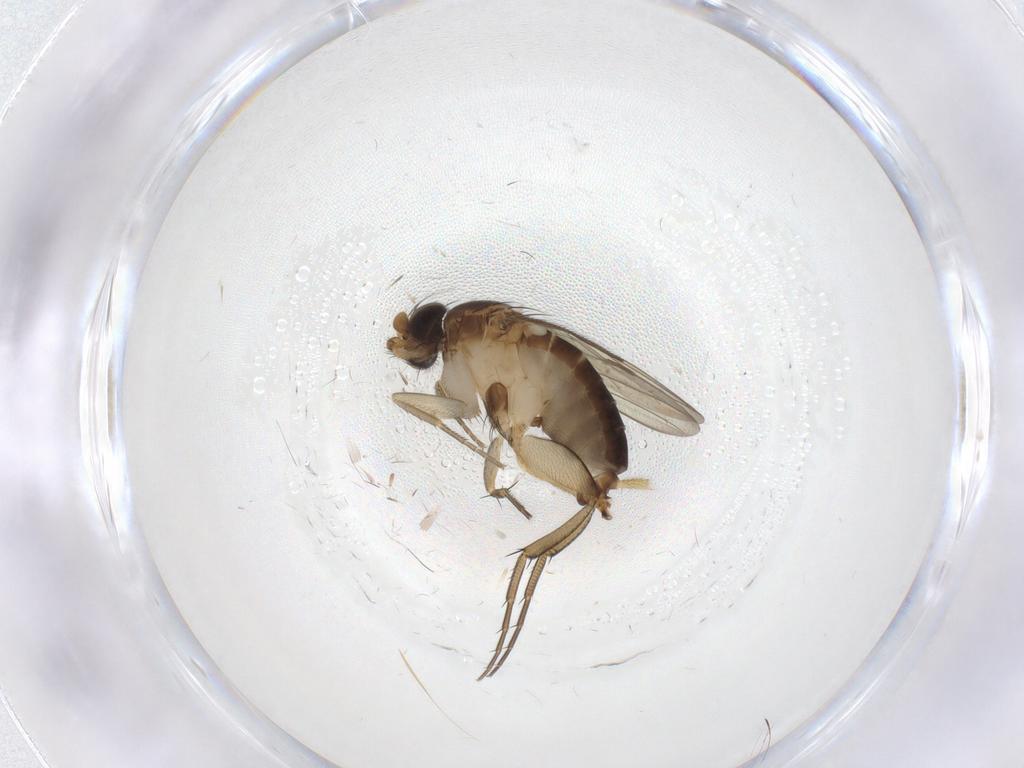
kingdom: Animalia
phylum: Arthropoda
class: Insecta
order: Diptera
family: Phoridae
